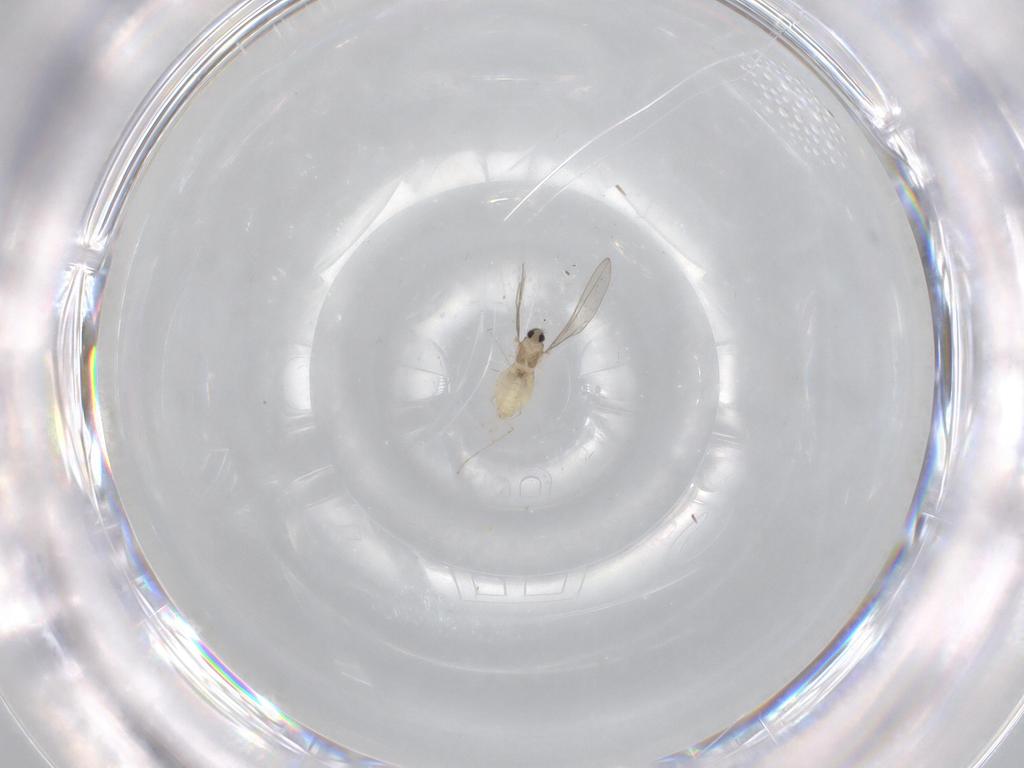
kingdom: Animalia
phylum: Arthropoda
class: Insecta
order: Diptera
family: Cecidomyiidae
